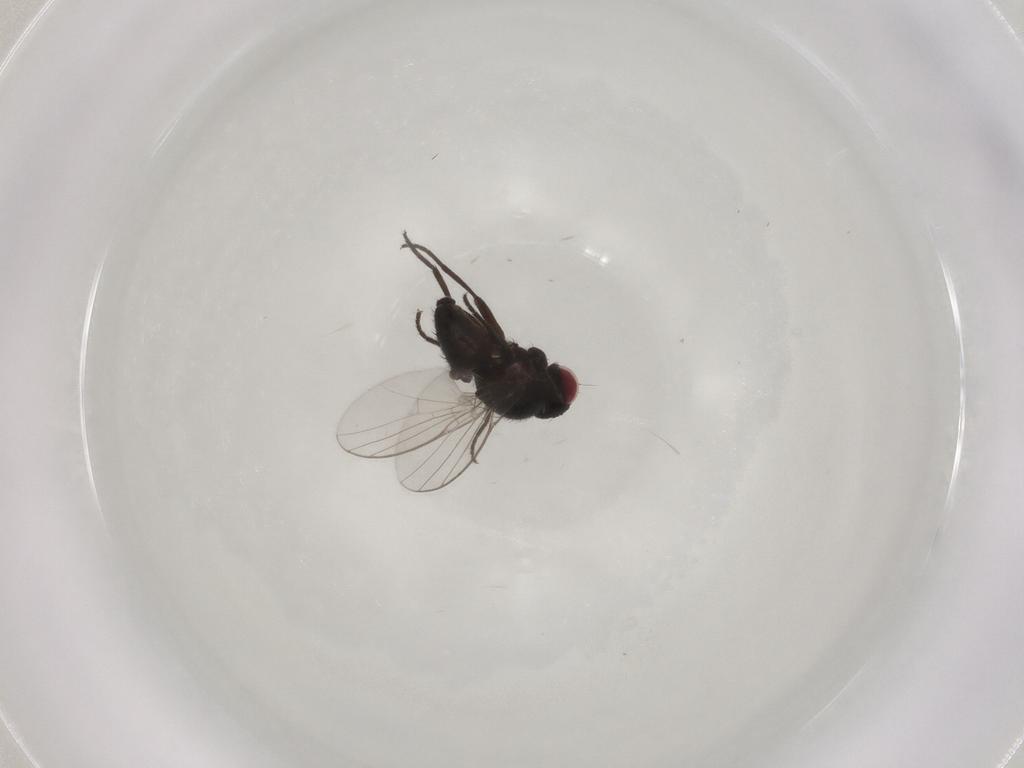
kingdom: Animalia
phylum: Arthropoda
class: Insecta
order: Diptera
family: Agromyzidae
